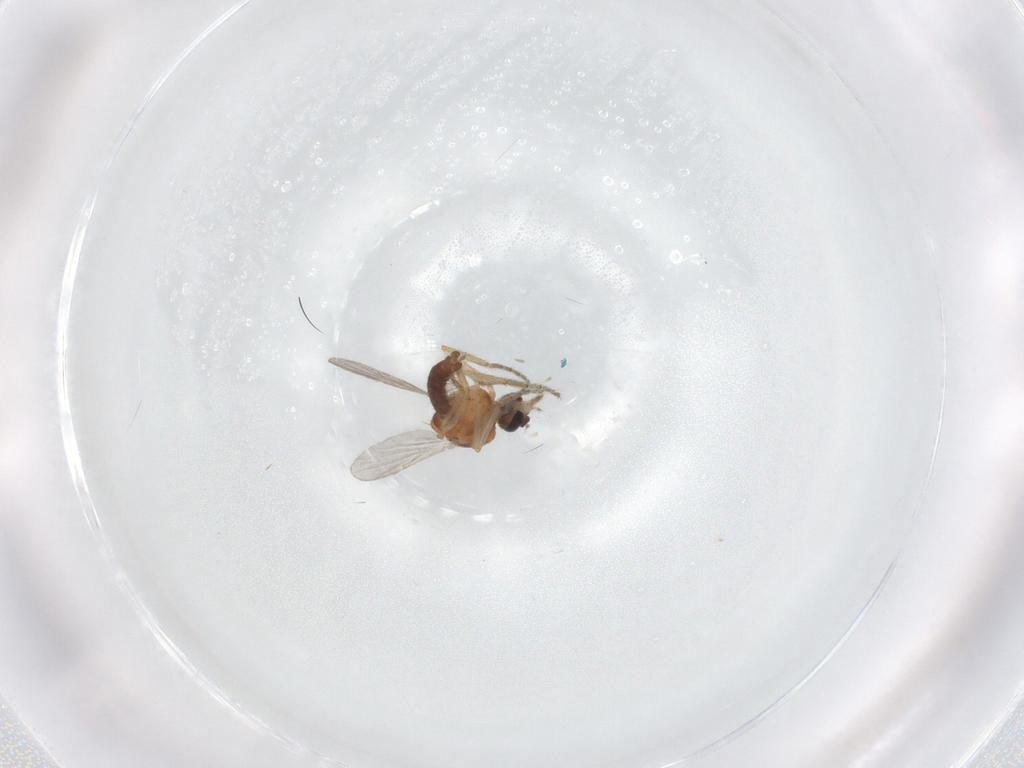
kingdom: Animalia
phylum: Arthropoda
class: Insecta
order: Diptera
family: Ceratopogonidae
